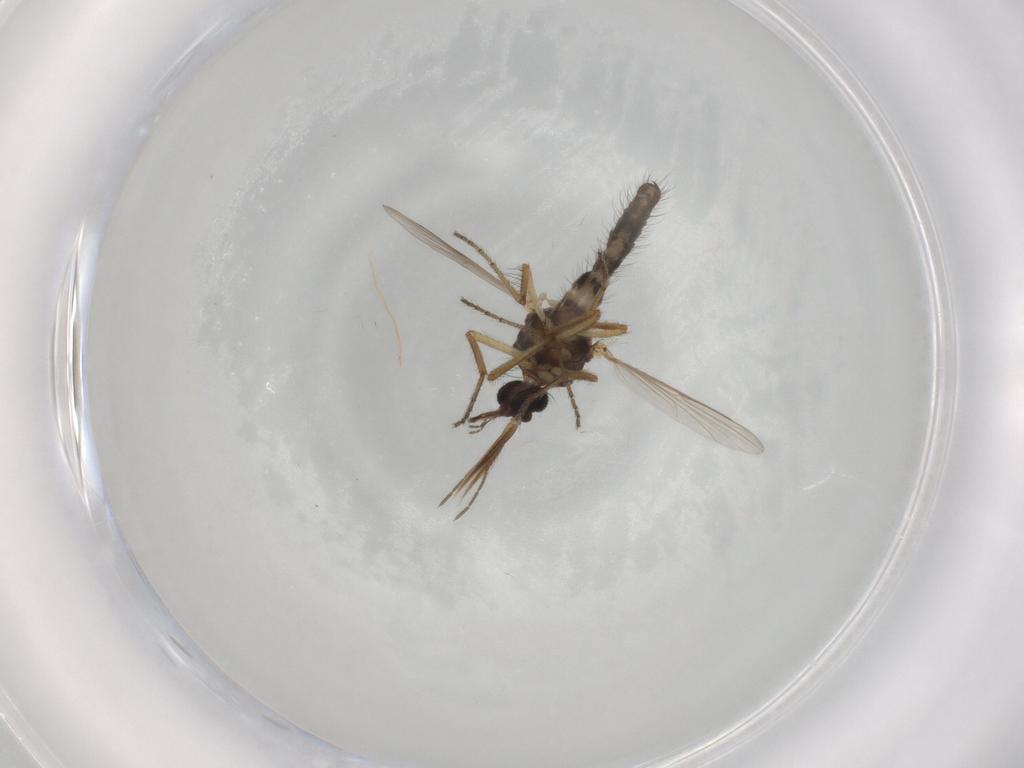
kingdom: Animalia
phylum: Arthropoda
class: Insecta
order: Diptera
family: Ceratopogonidae
